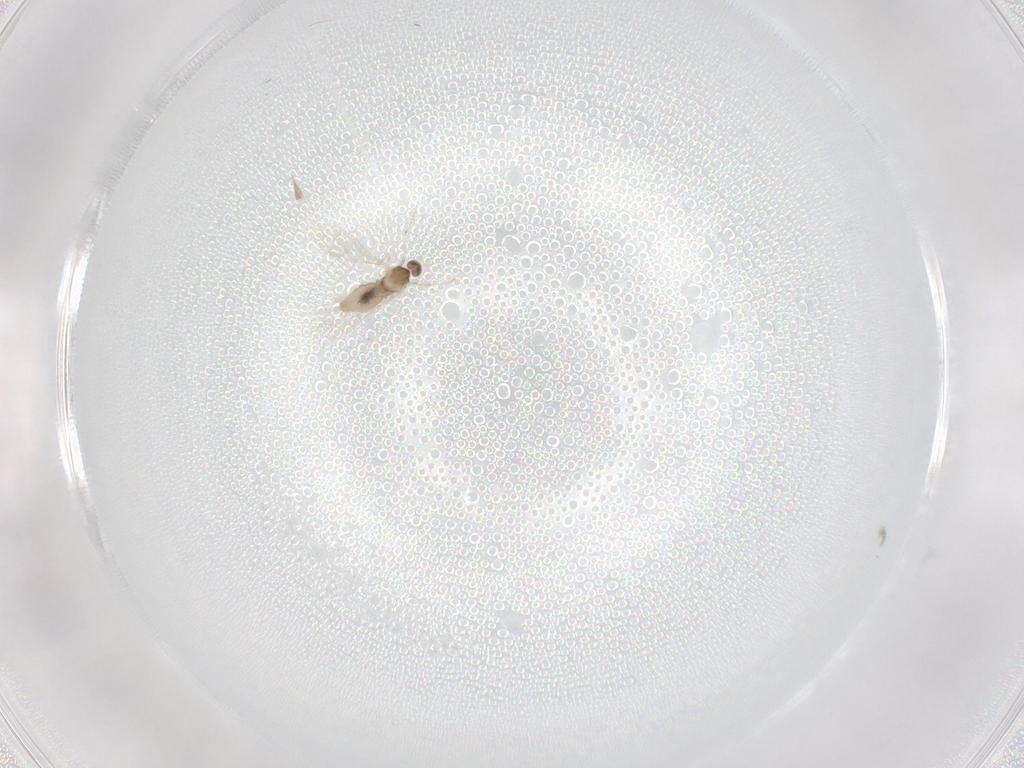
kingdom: Animalia
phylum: Arthropoda
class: Insecta
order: Diptera
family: Cecidomyiidae
